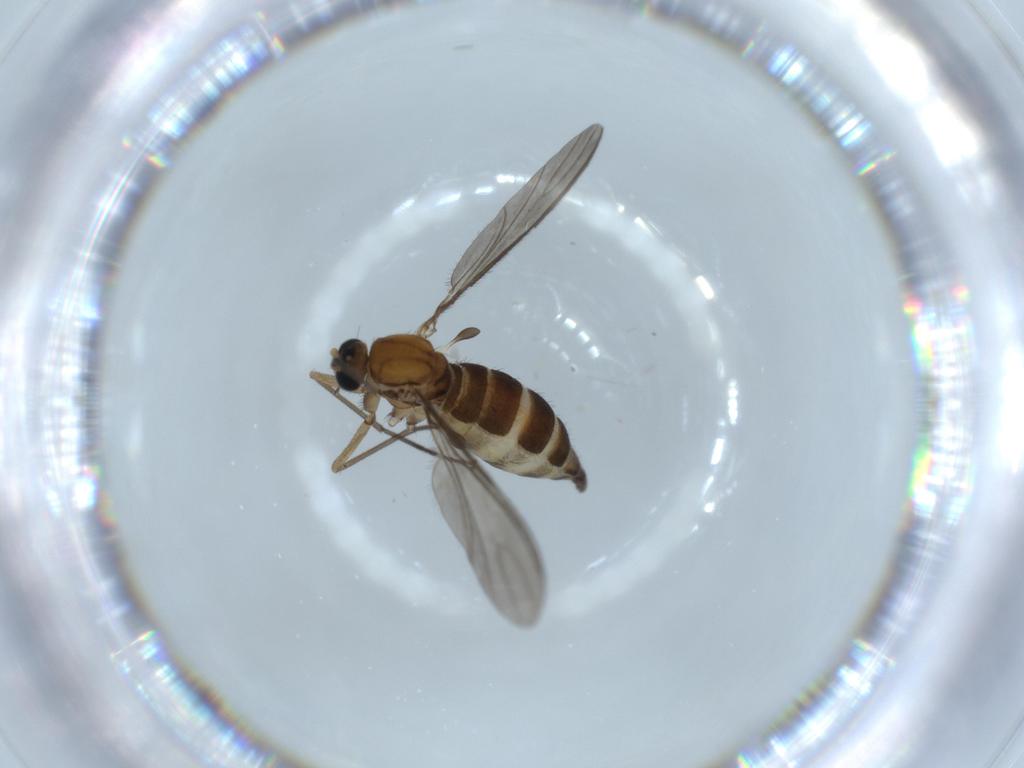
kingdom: Animalia
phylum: Arthropoda
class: Insecta
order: Diptera
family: Sciaridae
